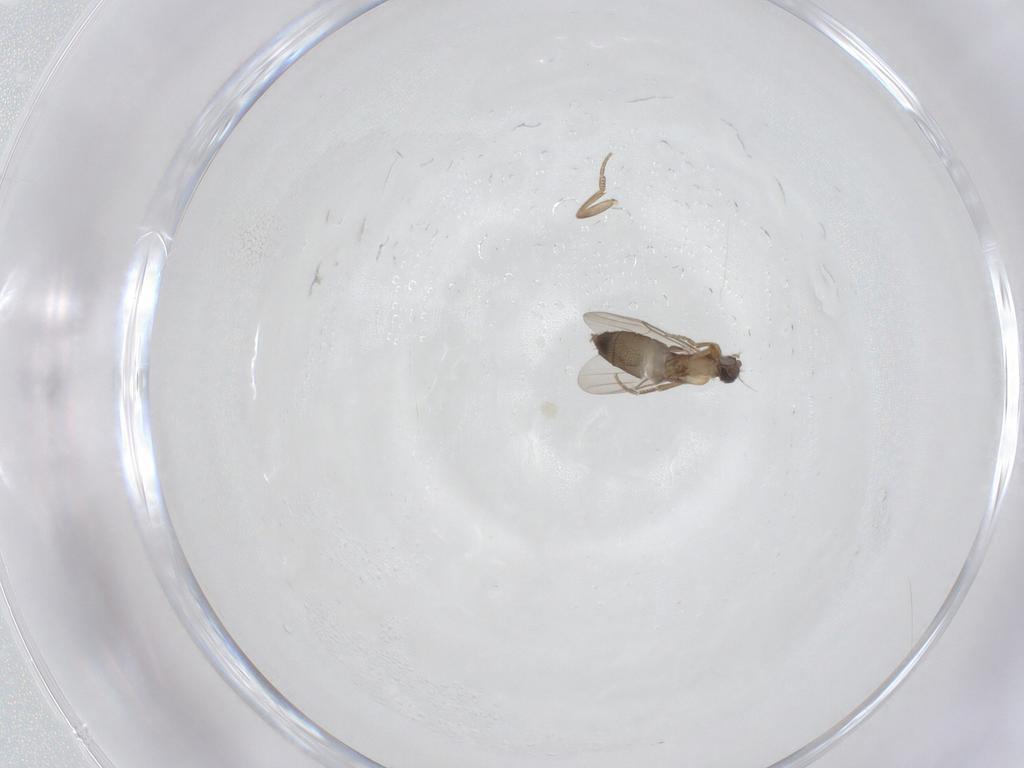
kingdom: Animalia
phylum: Arthropoda
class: Insecta
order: Diptera
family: Phoridae
